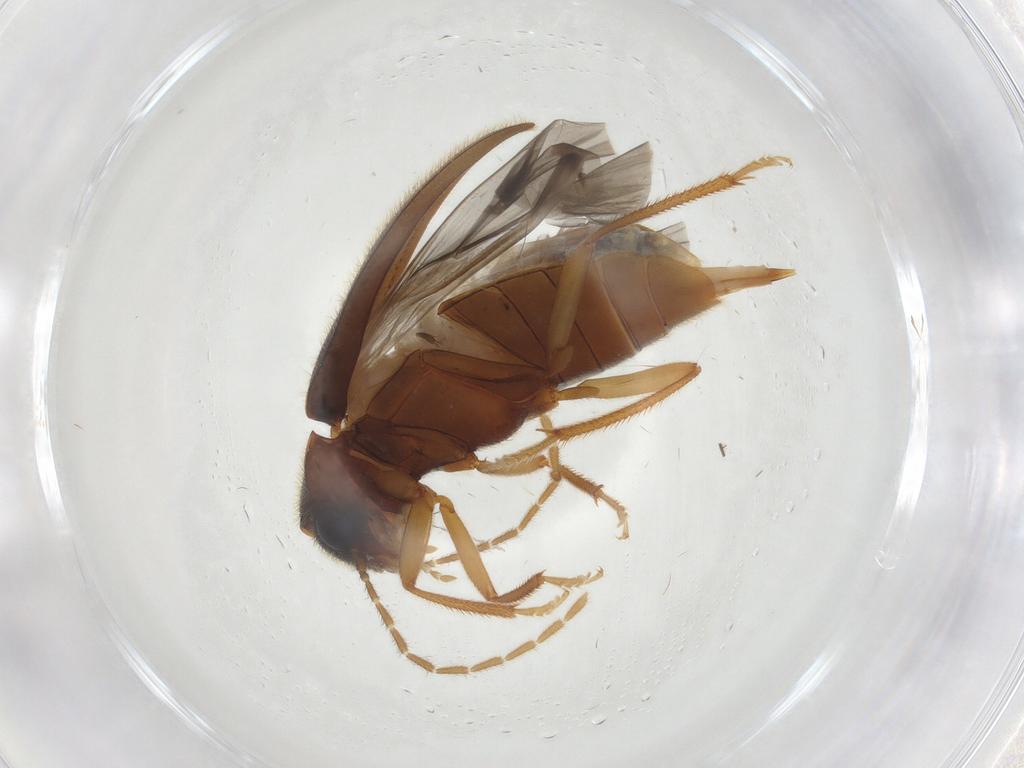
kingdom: Animalia
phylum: Arthropoda
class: Insecta
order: Coleoptera
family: Ptilodactylidae
